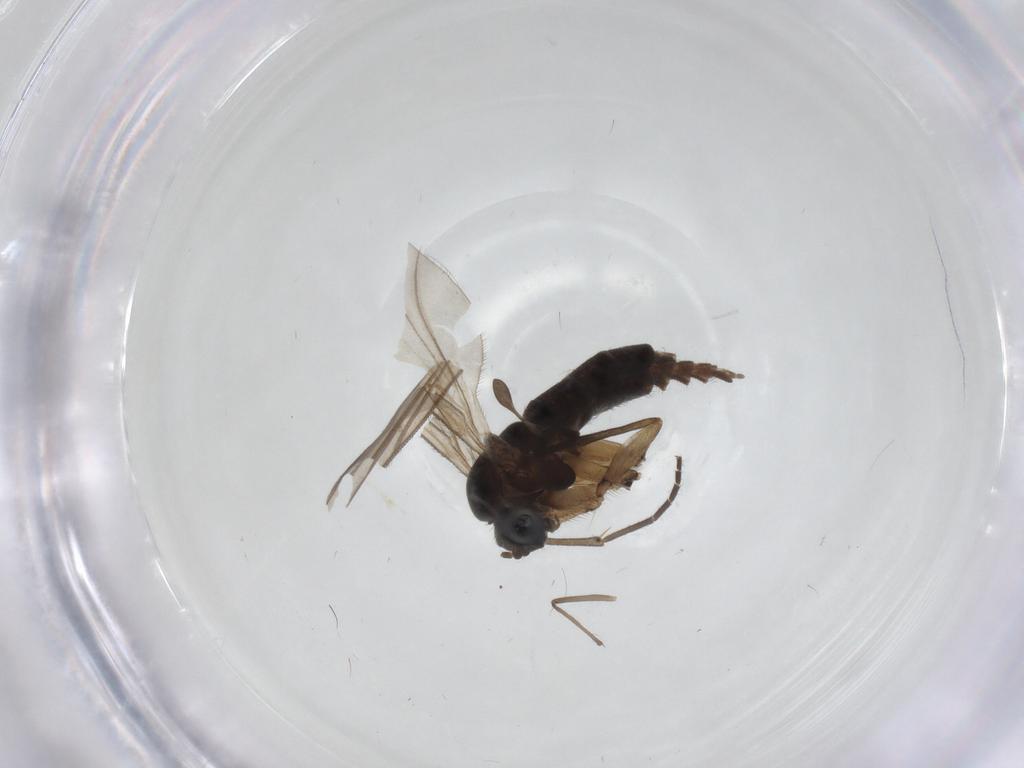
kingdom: Animalia
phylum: Arthropoda
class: Insecta
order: Diptera
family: Sciaridae
